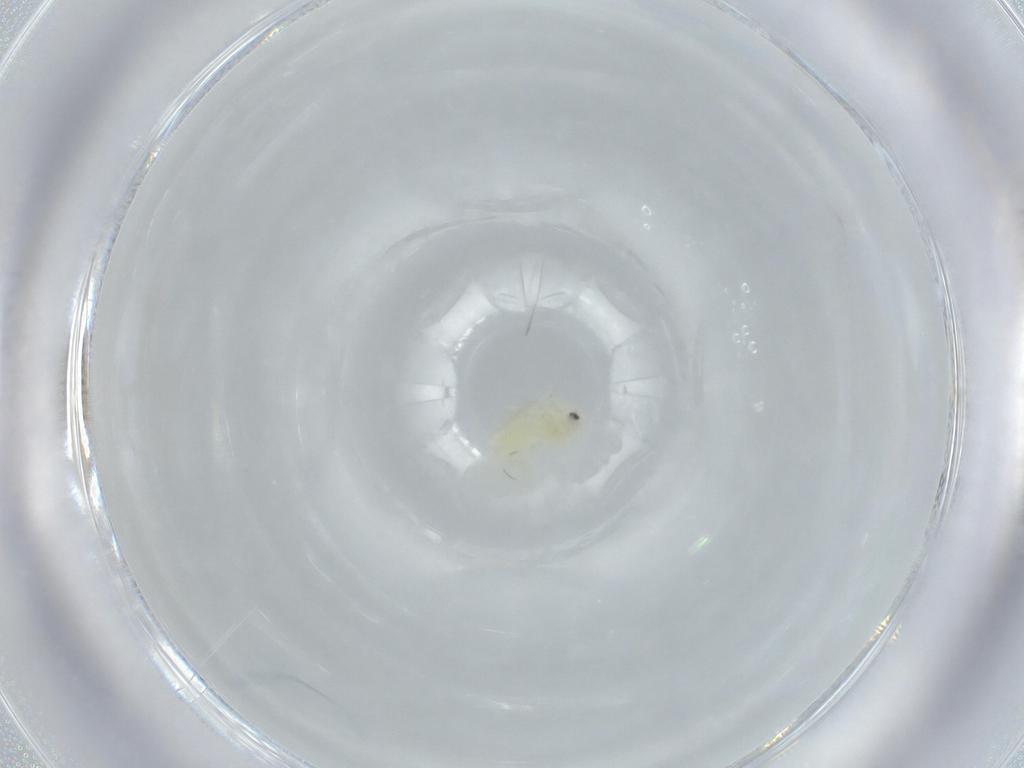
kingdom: Animalia
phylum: Arthropoda
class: Insecta
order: Hemiptera
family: Aleyrodidae
